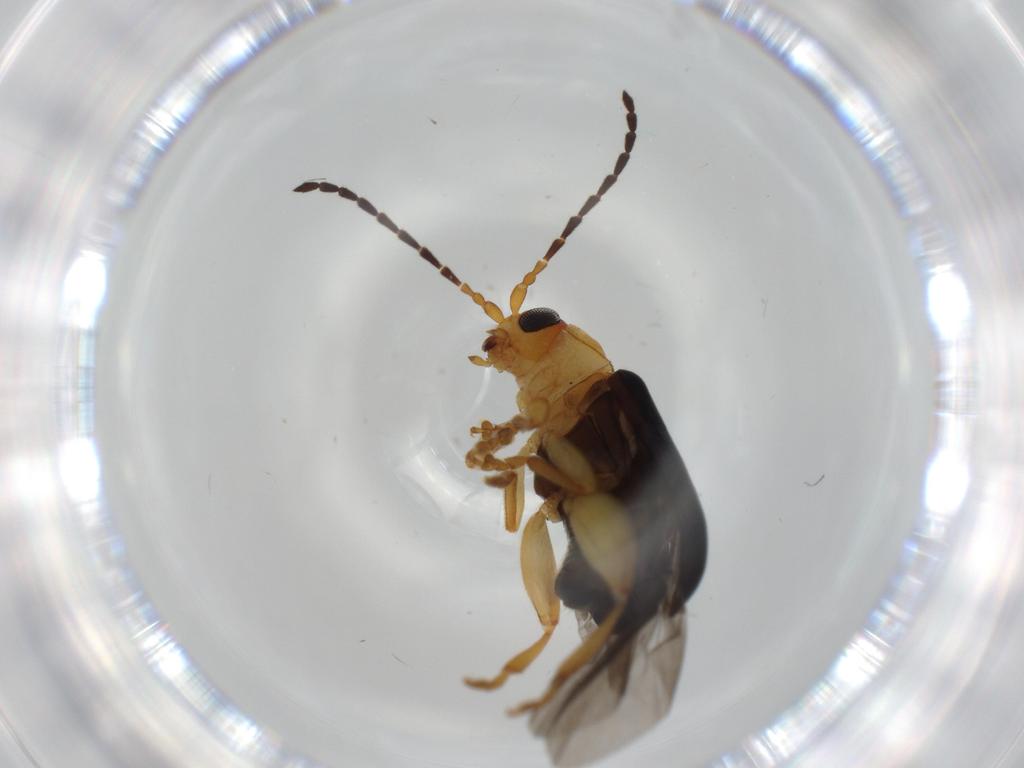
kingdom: Animalia
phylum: Arthropoda
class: Insecta
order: Coleoptera
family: Chrysomelidae
